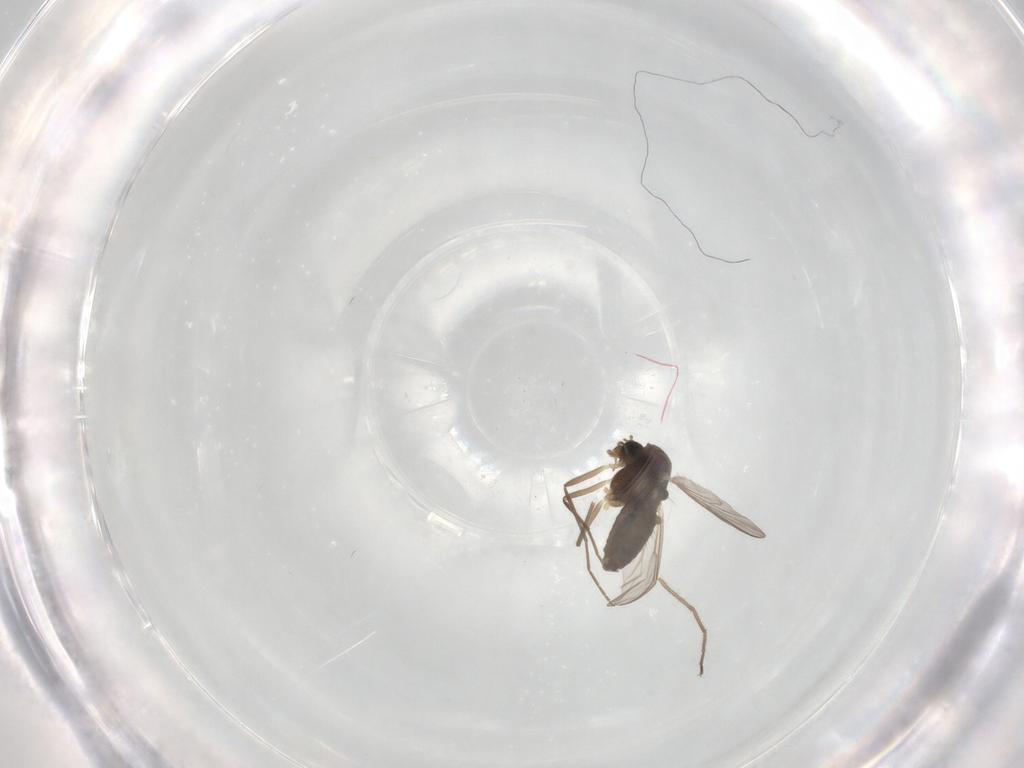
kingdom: Animalia
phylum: Arthropoda
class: Insecta
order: Diptera
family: Chironomidae
